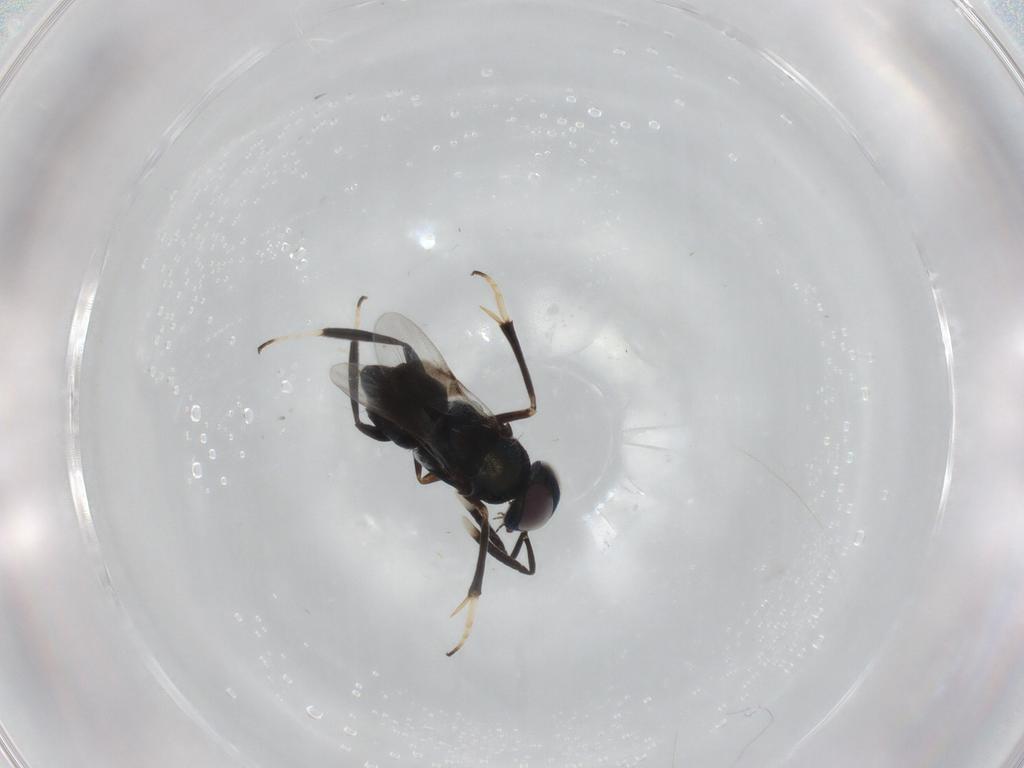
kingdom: Animalia
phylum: Arthropoda
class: Insecta
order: Hymenoptera
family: Encyrtidae
